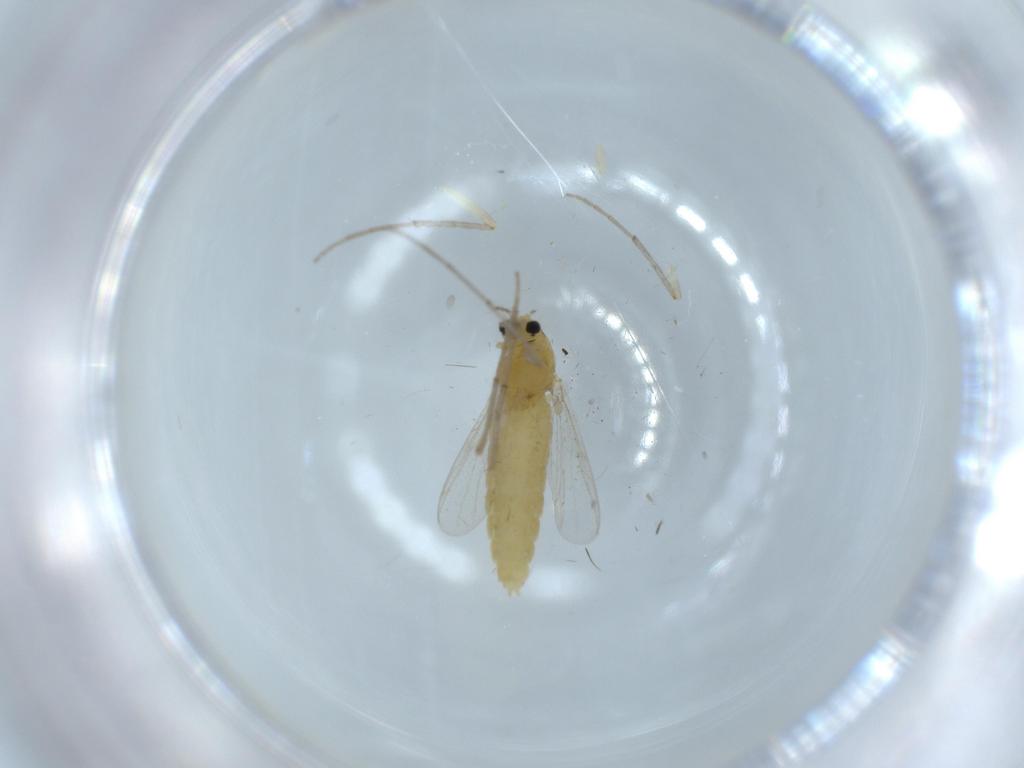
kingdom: Animalia
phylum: Arthropoda
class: Insecta
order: Diptera
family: Chironomidae
